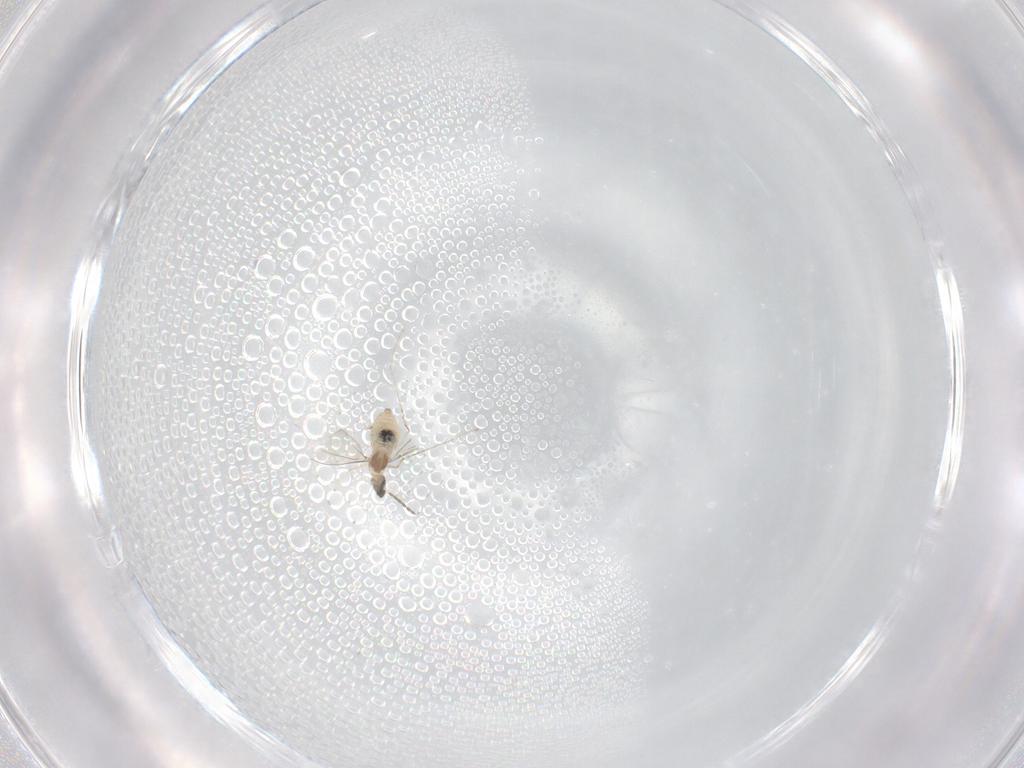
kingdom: Animalia
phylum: Arthropoda
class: Insecta
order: Diptera
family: Cecidomyiidae
